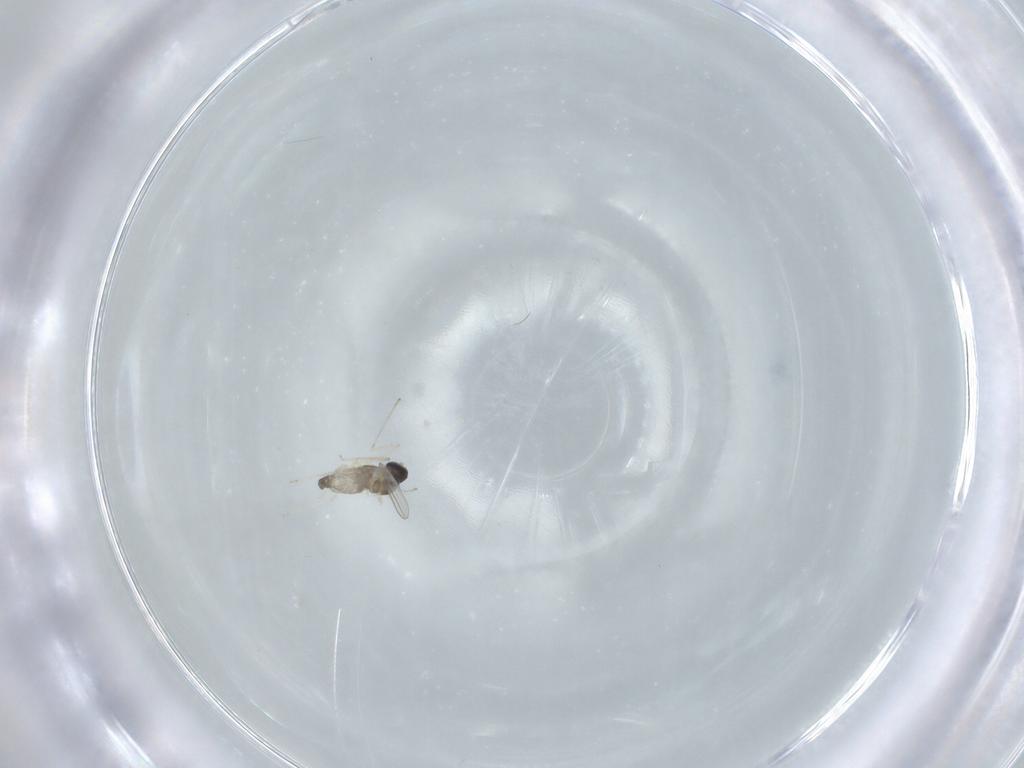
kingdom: Animalia
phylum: Arthropoda
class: Insecta
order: Diptera
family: Cecidomyiidae
